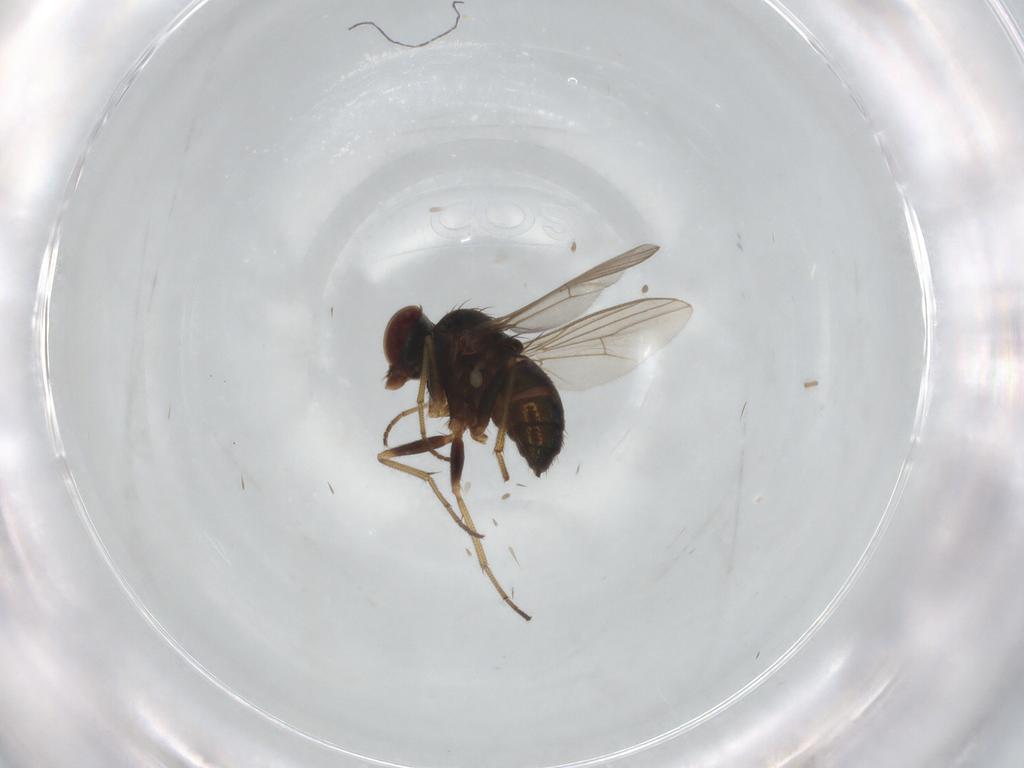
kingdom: Animalia
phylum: Arthropoda
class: Insecta
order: Diptera
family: Dolichopodidae
